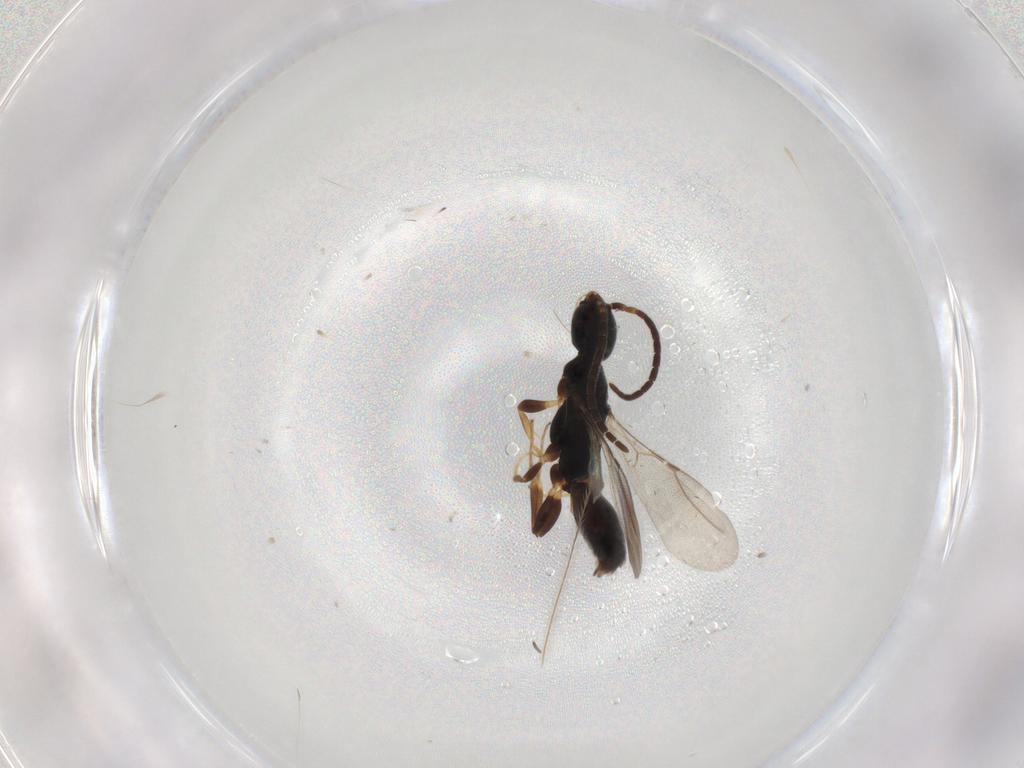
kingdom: Animalia
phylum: Arthropoda
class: Insecta
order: Hymenoptera
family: Bethylidae
